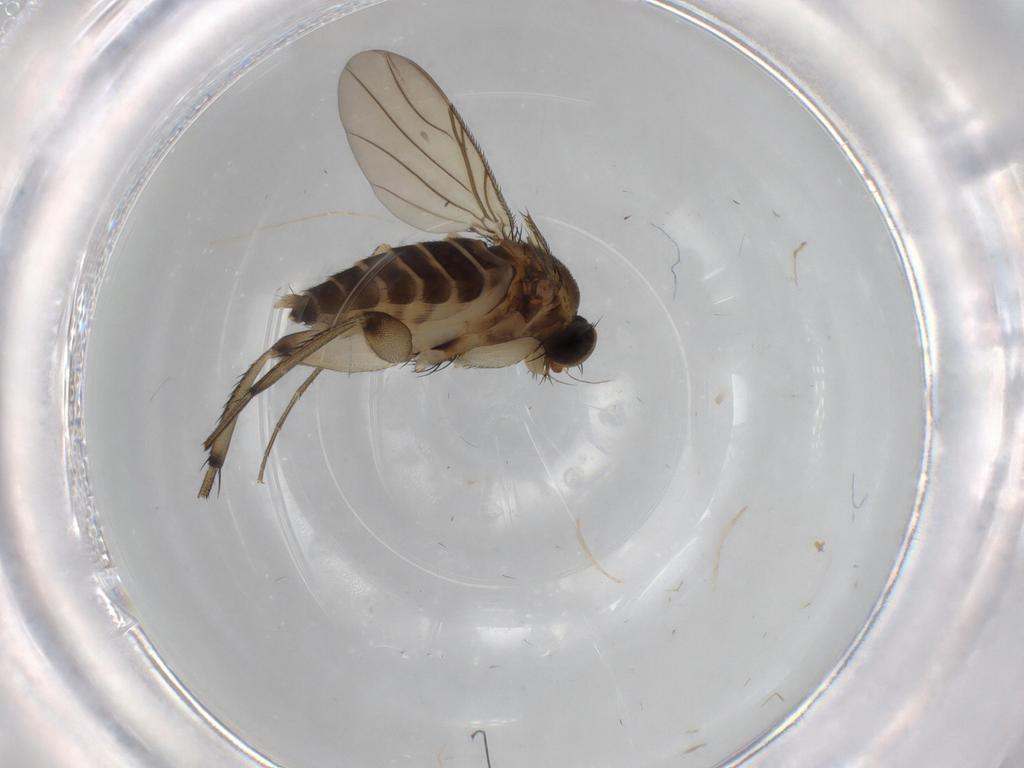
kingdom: Animalia
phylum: Arthropoda
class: Insecta
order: Diptera
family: Phoridae
